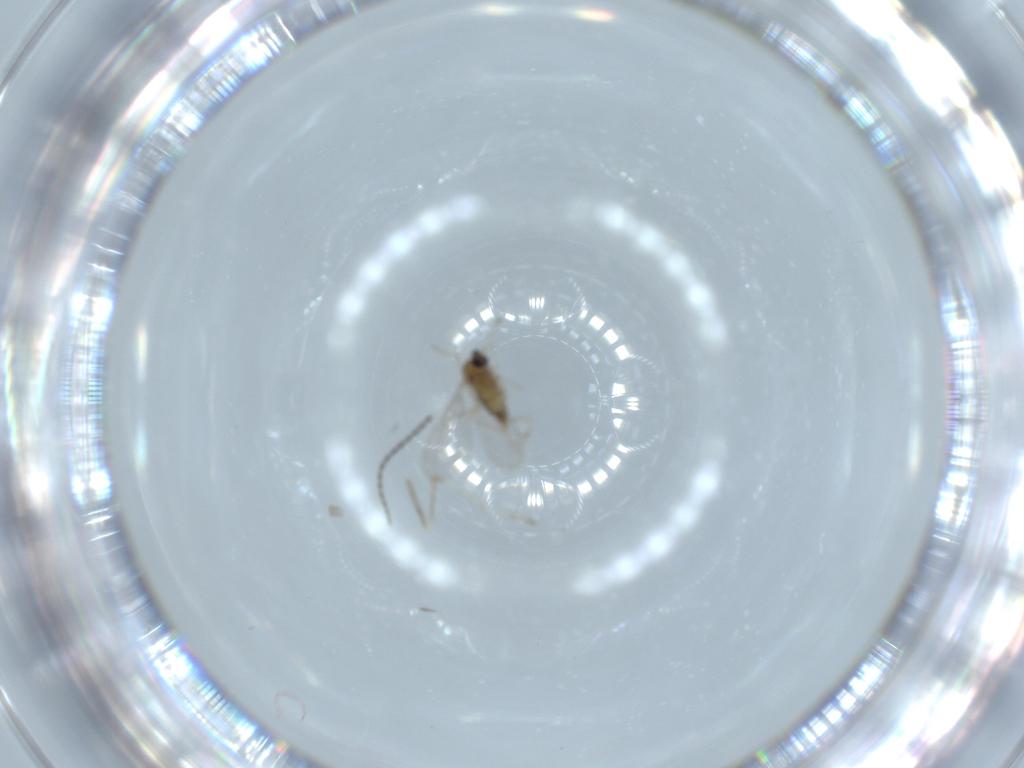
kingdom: Animalia
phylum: Arthropoda
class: Insecta
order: Diptera
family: Cecidomyiidae
